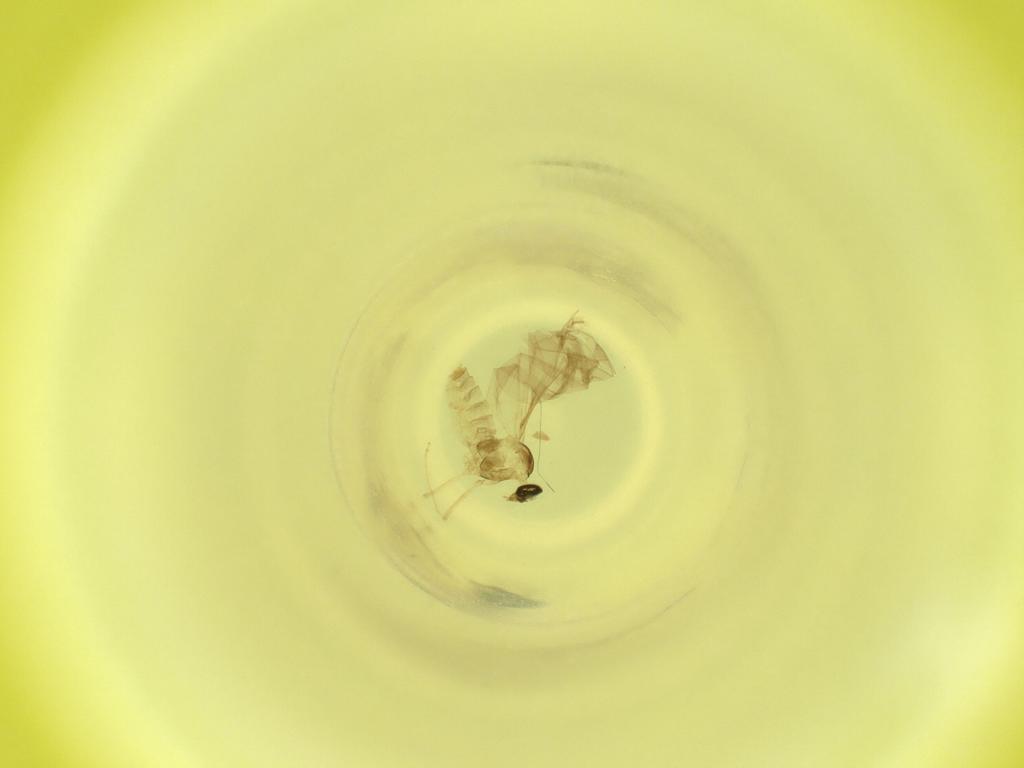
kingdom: Animalia
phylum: Arthropoda
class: Insecta
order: Diptera
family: Cecidomyiidae
